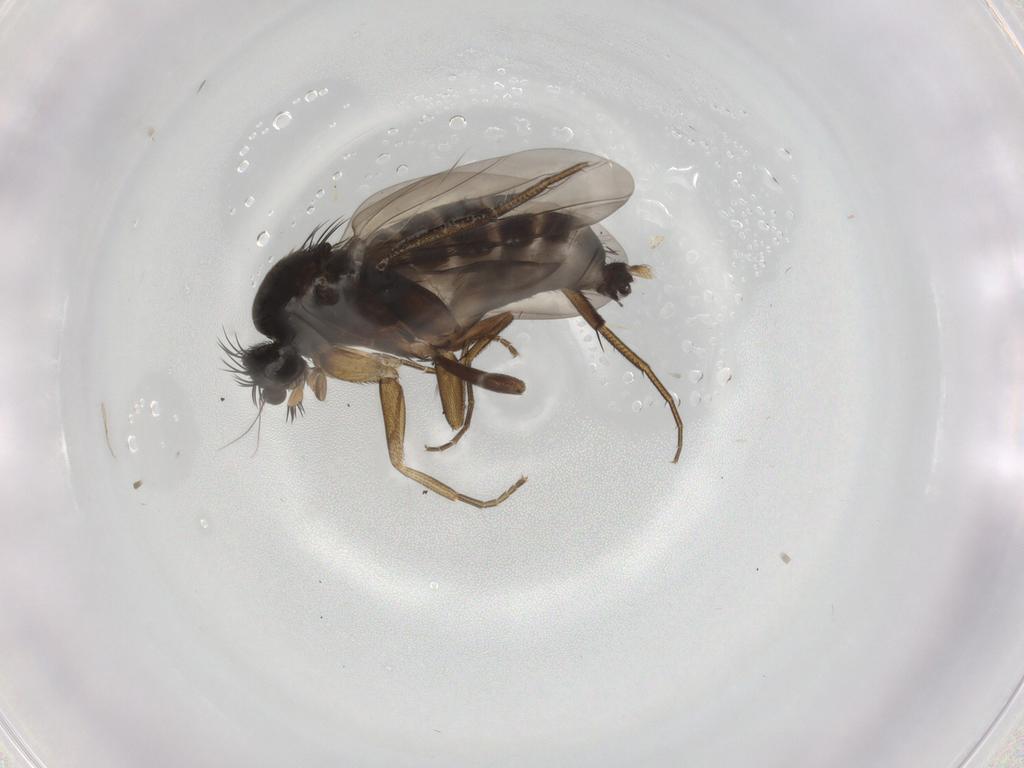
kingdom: Animalia
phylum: Arthropoda
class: Insecta
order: Diptera
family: Phoridae
